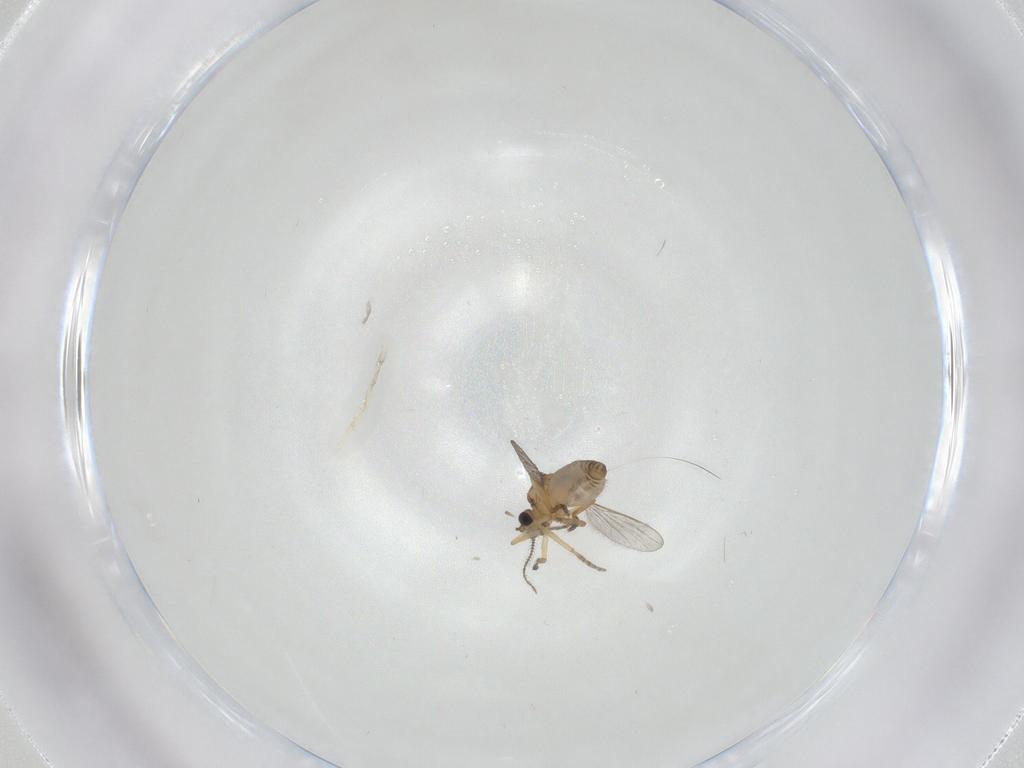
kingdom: Animalia
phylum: Arthropoda
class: Insecta
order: Diptera
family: Ceratopogonidae
